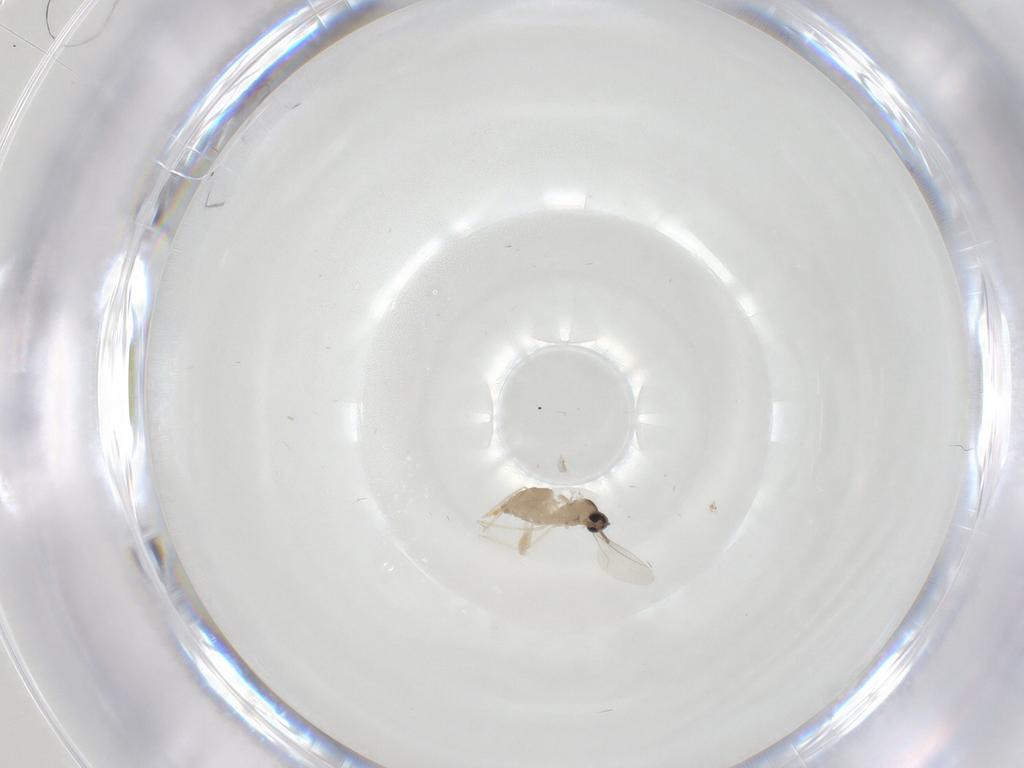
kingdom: Animalia
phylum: Arthropoda
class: Insecta
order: Diptera
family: Cecidomyiidae
